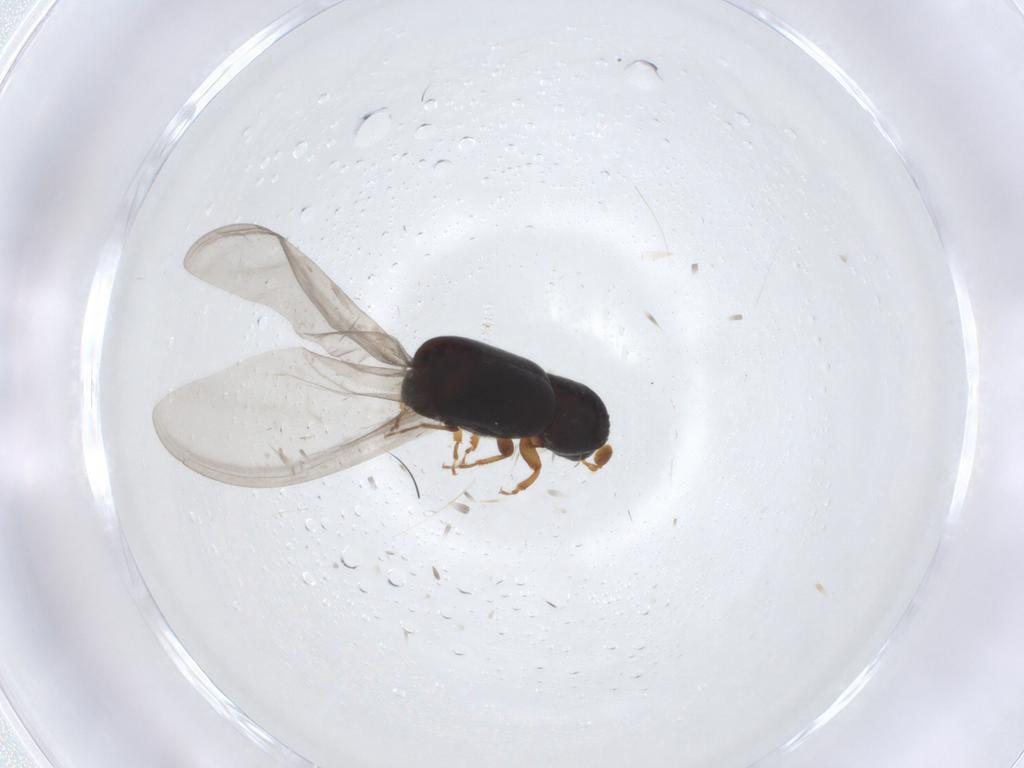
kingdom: Animalia
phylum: Arthropoda
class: Insecta
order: Coleoptera
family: Curculionidae
